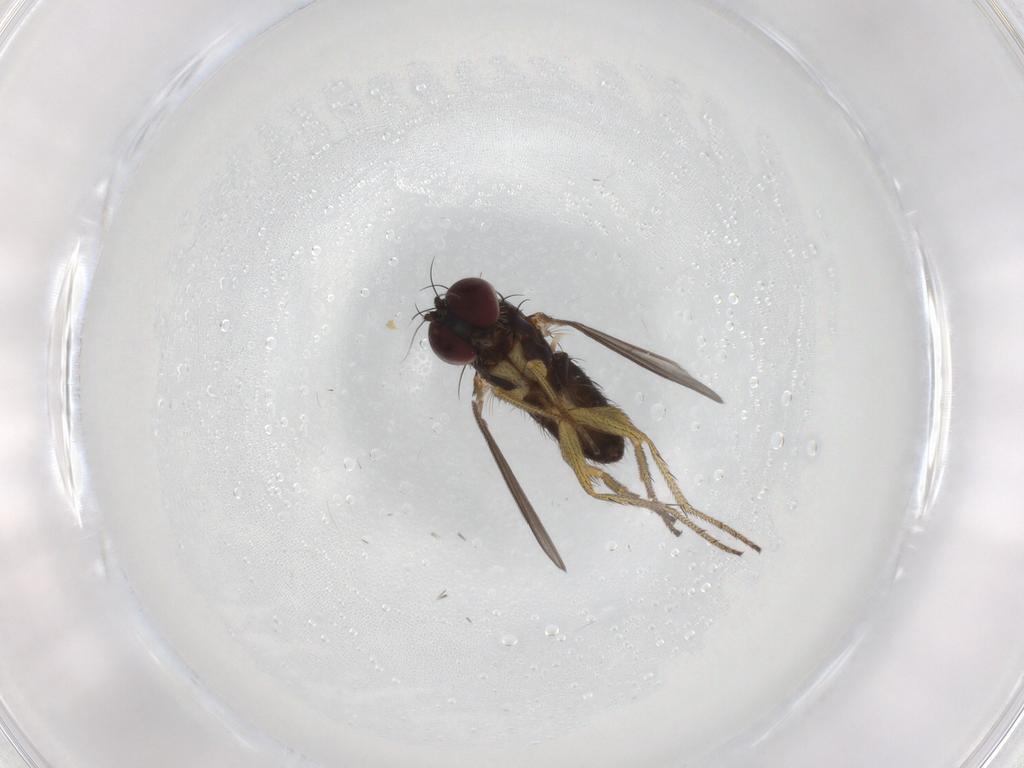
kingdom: Animalia
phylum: Arthropoda
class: Insecta
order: Diptera
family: Dolichopodidae
